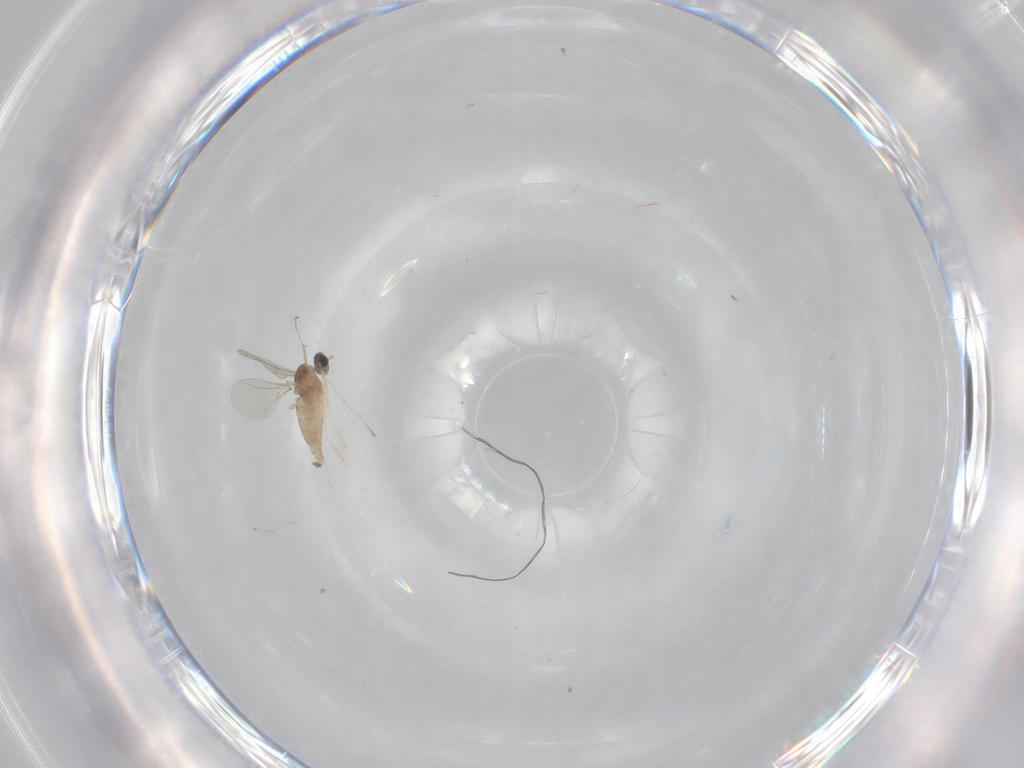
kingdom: Animalia
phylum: Arthropoda
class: Insecta
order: Diptera
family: Cecidomyiidae
